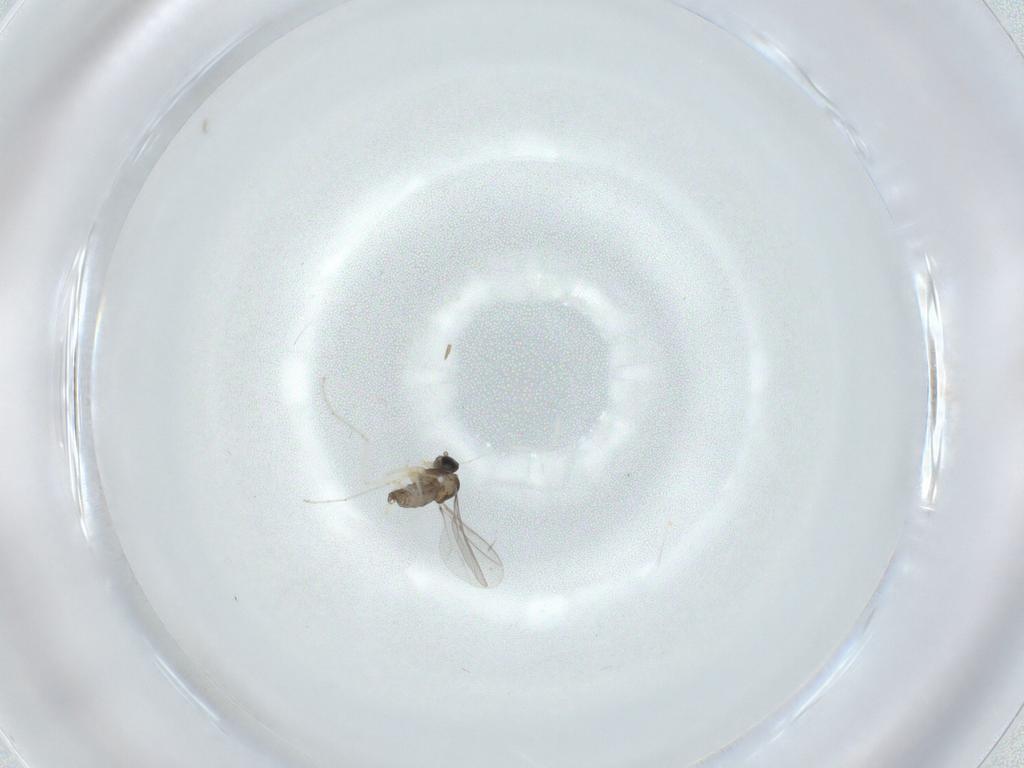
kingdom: Animalia
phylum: Arthropoda
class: Insecta
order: Diptera
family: Cecidomyiidae
